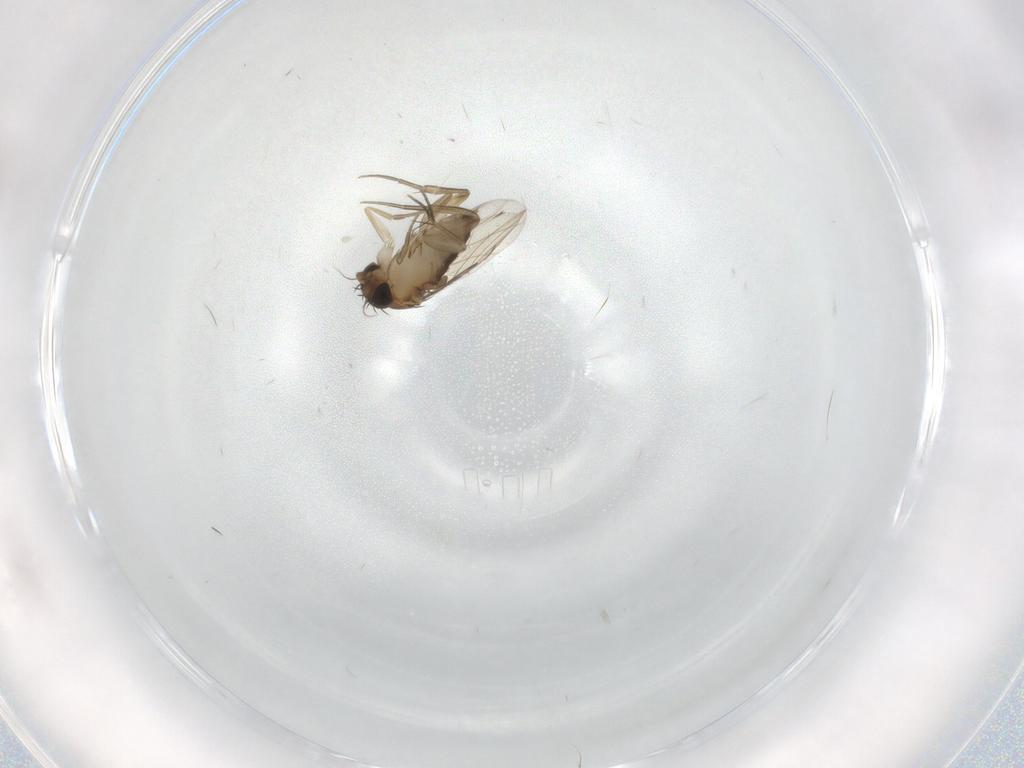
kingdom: Animalia
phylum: Arthropoda
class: Insecta
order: Diptera
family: Phoridae
